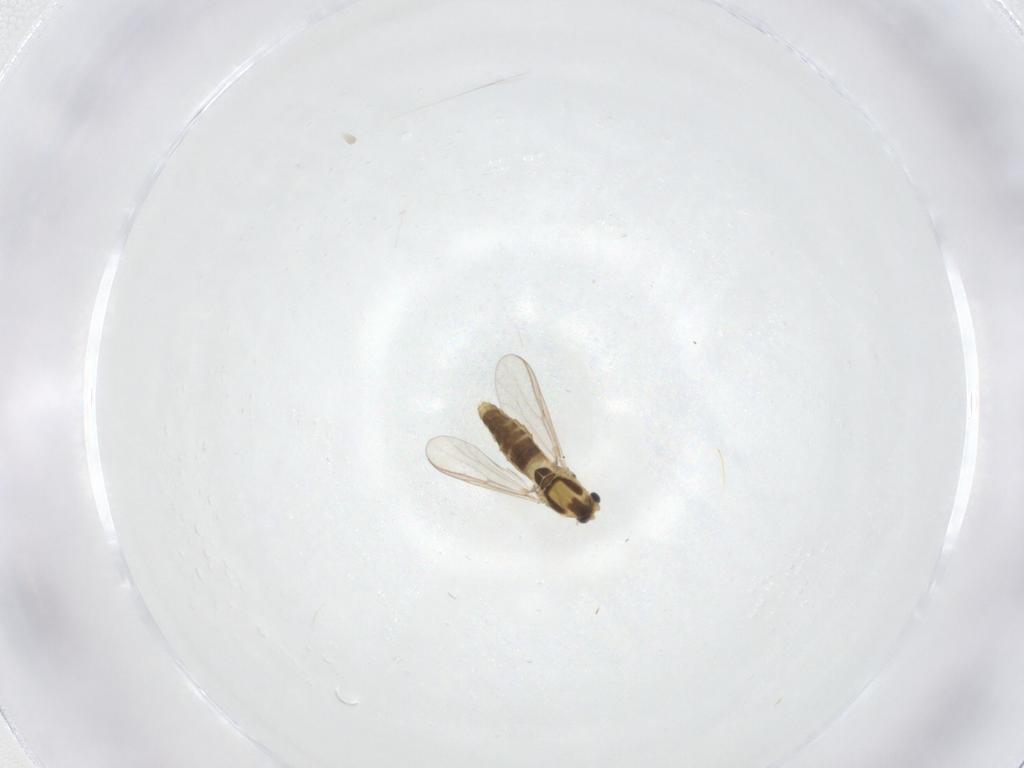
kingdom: Animalia
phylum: Arthropoda
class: Insecta
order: Diptera
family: Chironomidae
